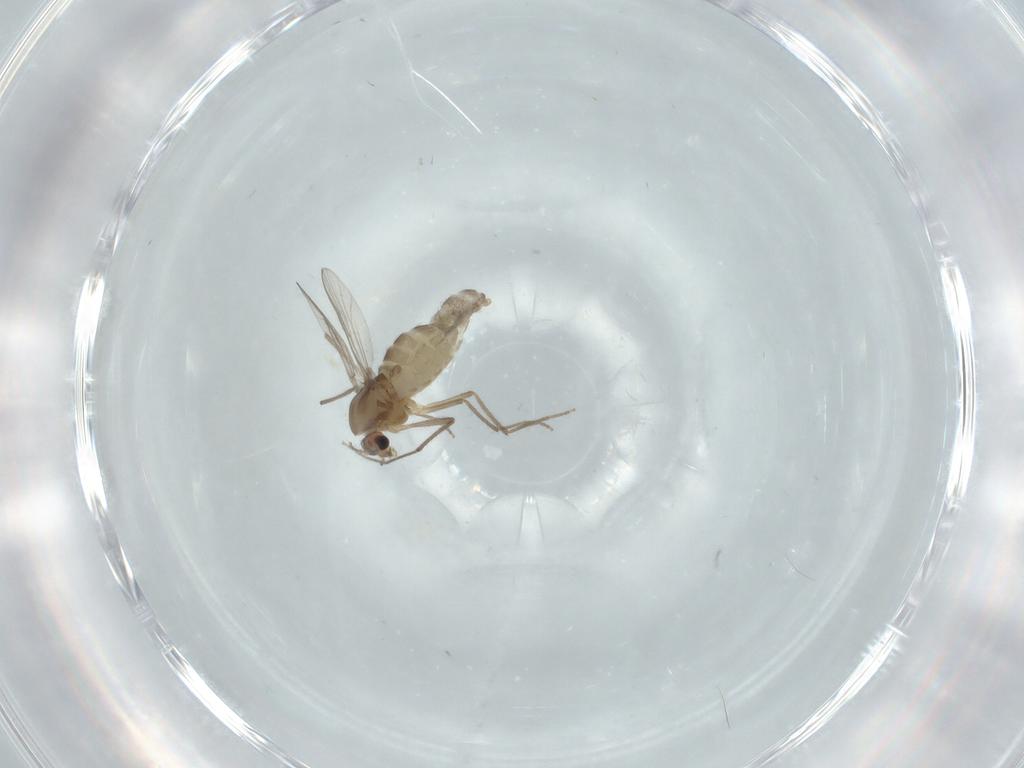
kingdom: Animalia
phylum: Arthropoda
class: Insecta
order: Diptera
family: Chironomidae
